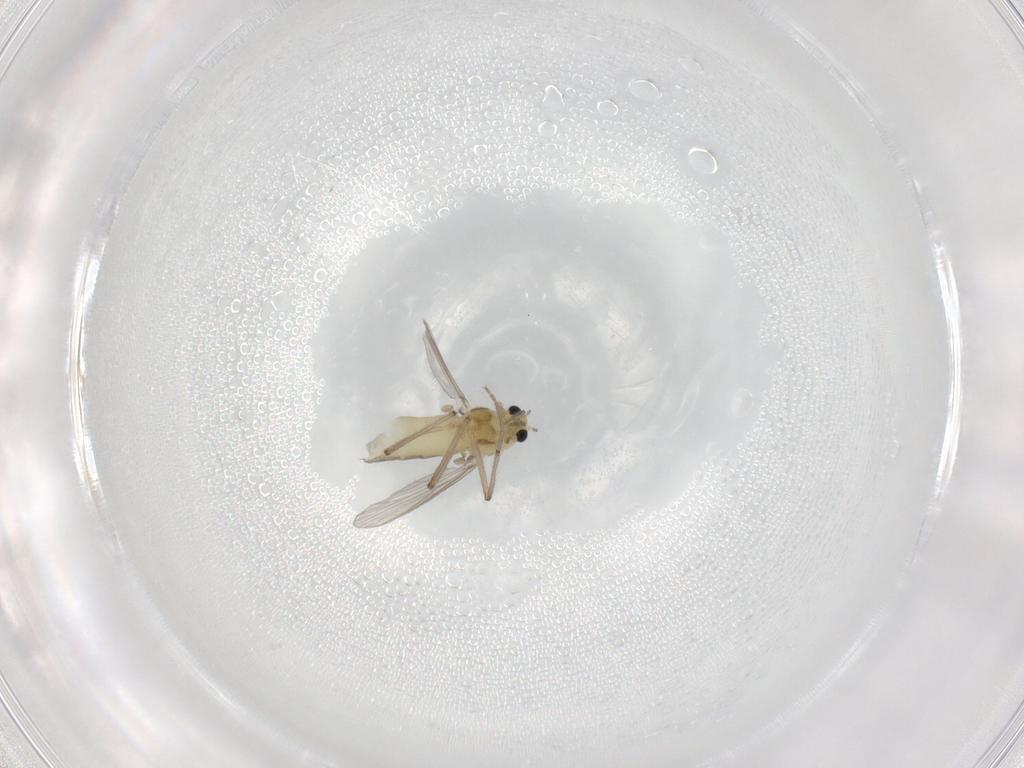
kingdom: Animalia
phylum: Arthropoda
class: Insecta
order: Diptera
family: Chironomidae
